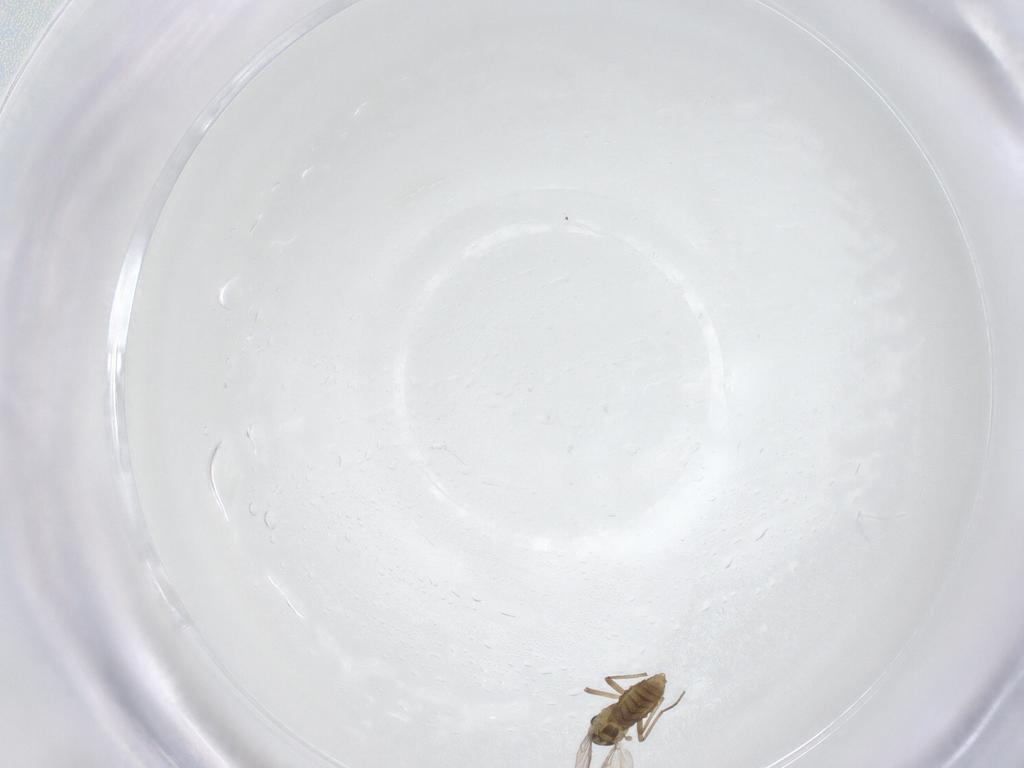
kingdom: Animalia
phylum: Arthropoda
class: Insecta
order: Diptera
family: Chironomidae
